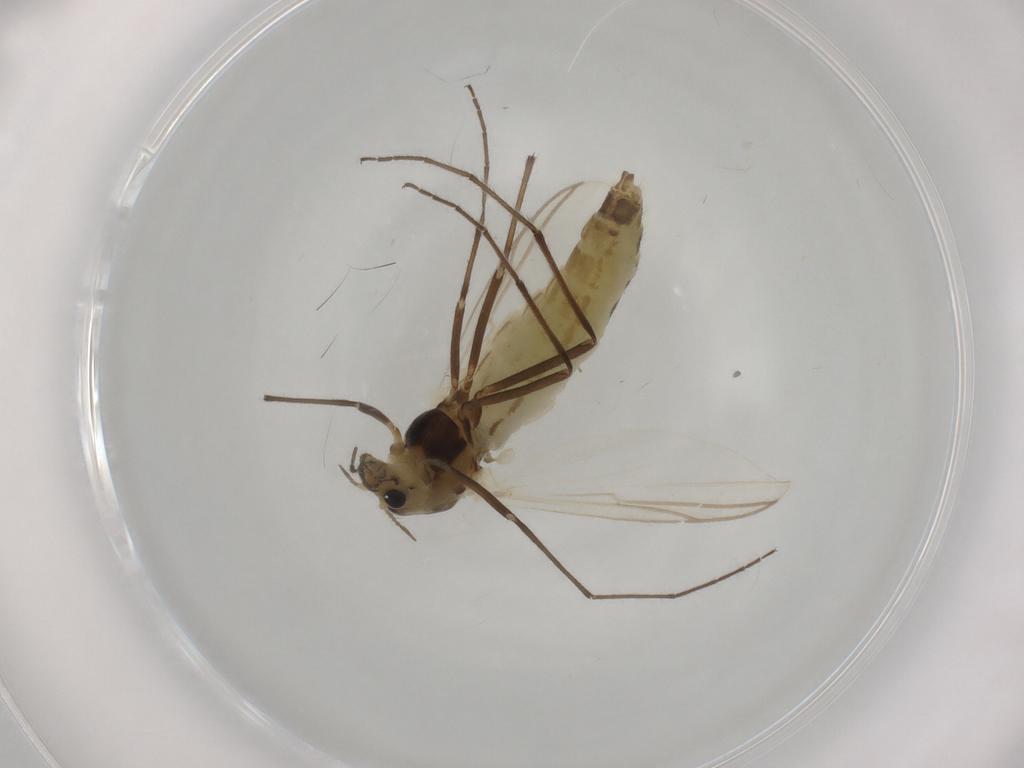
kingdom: Animalia
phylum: Arthropoda
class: Insecta
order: Diptera
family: Chironomidae
